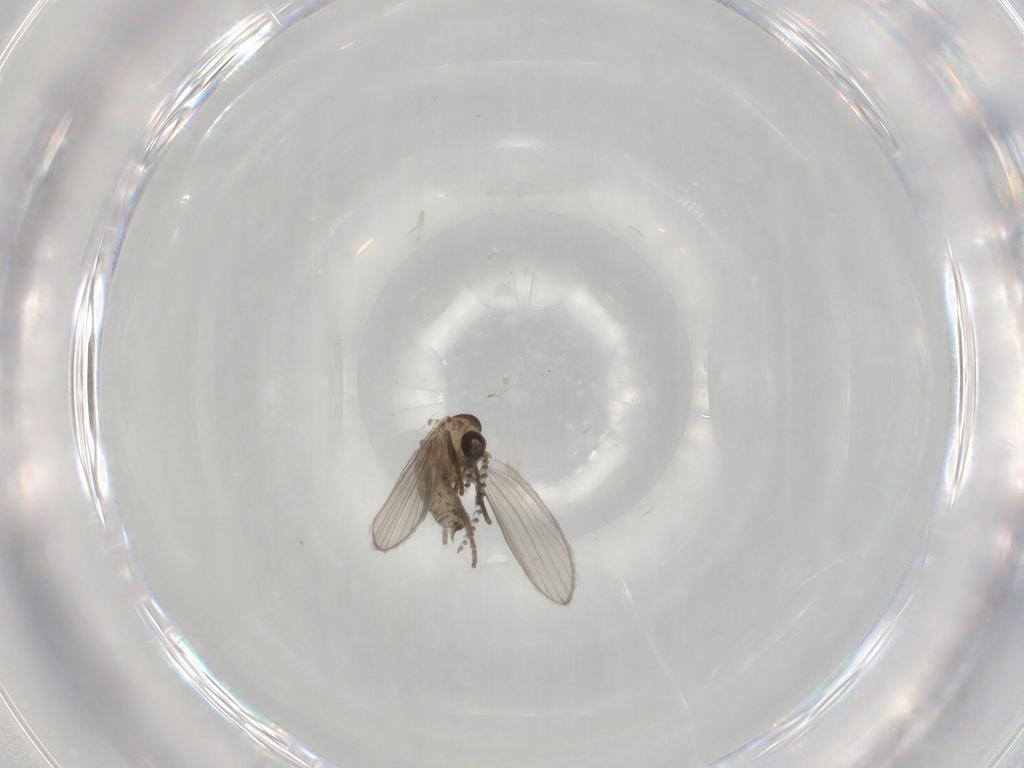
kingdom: Animalia
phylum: Arthropoda
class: Insecta
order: Diptera
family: Psychodidae
